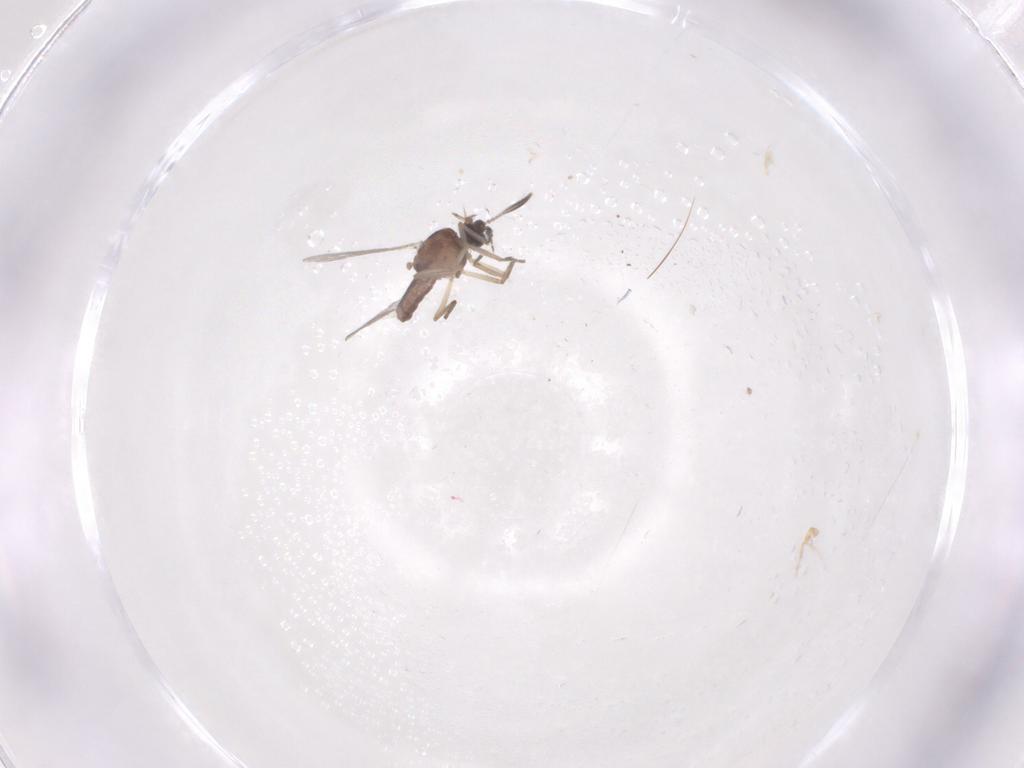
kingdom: Animalia
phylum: Arthropoda
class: Insecta
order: Diptera
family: Ceratopogonidae
